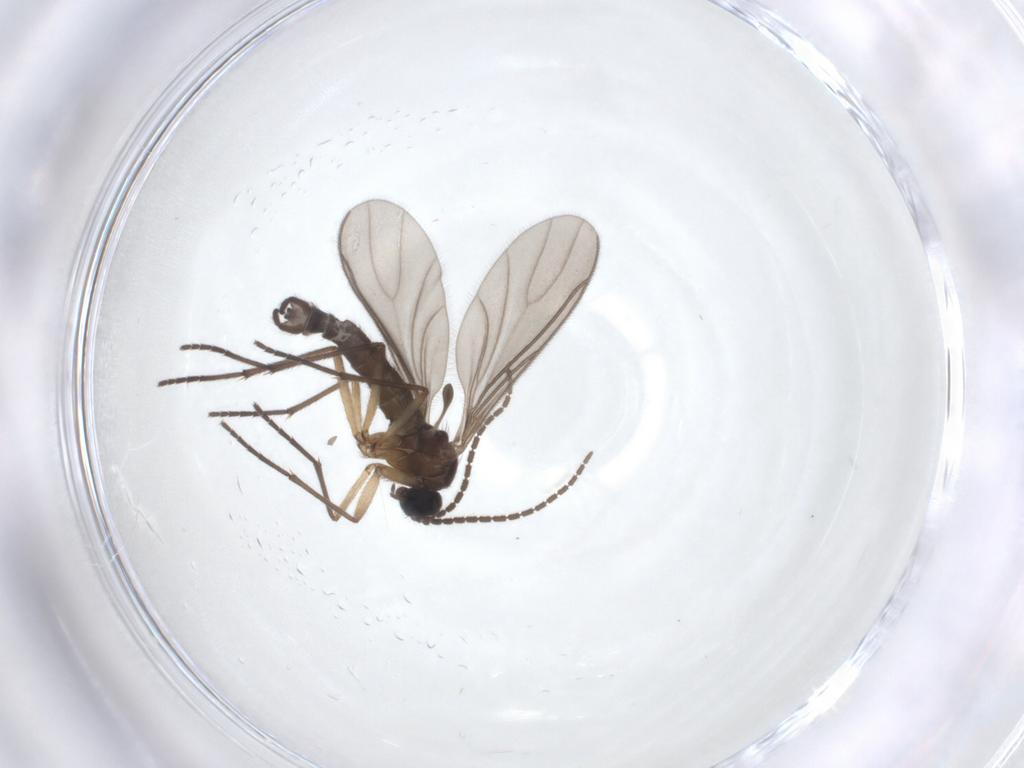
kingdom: Animalia
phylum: Arthropoda
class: Insecta
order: Diptera
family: Sciaridae
